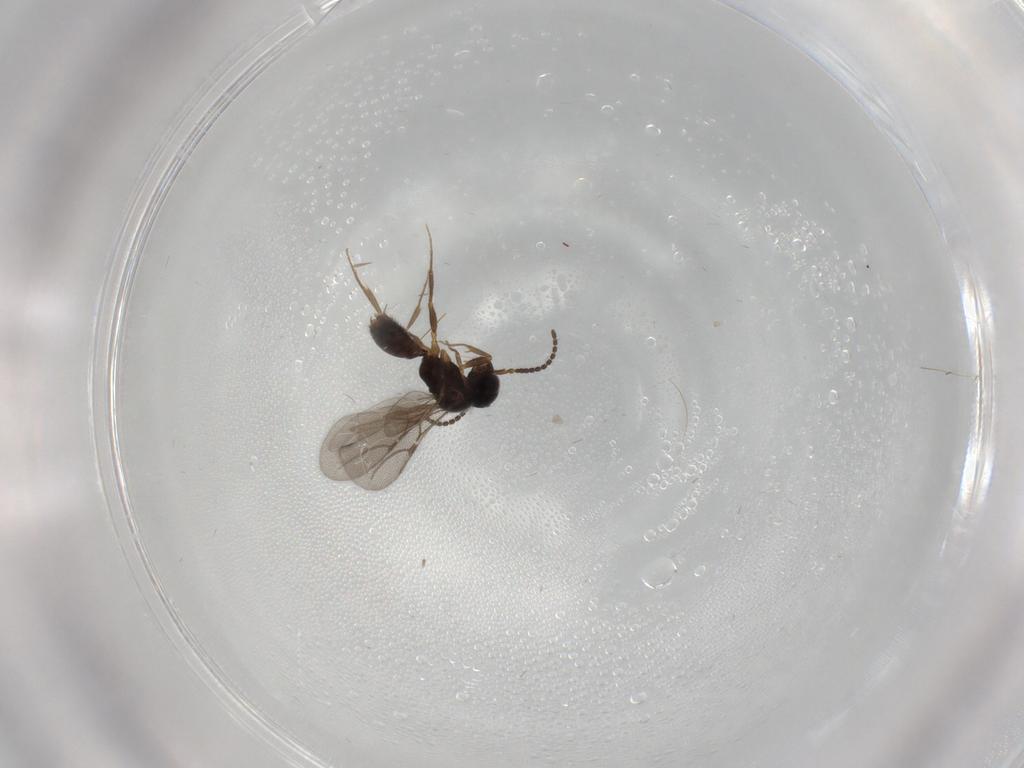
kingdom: Animalia
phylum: Arthropoda
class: Insecta
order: Hymenoptera
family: Bethylidae
